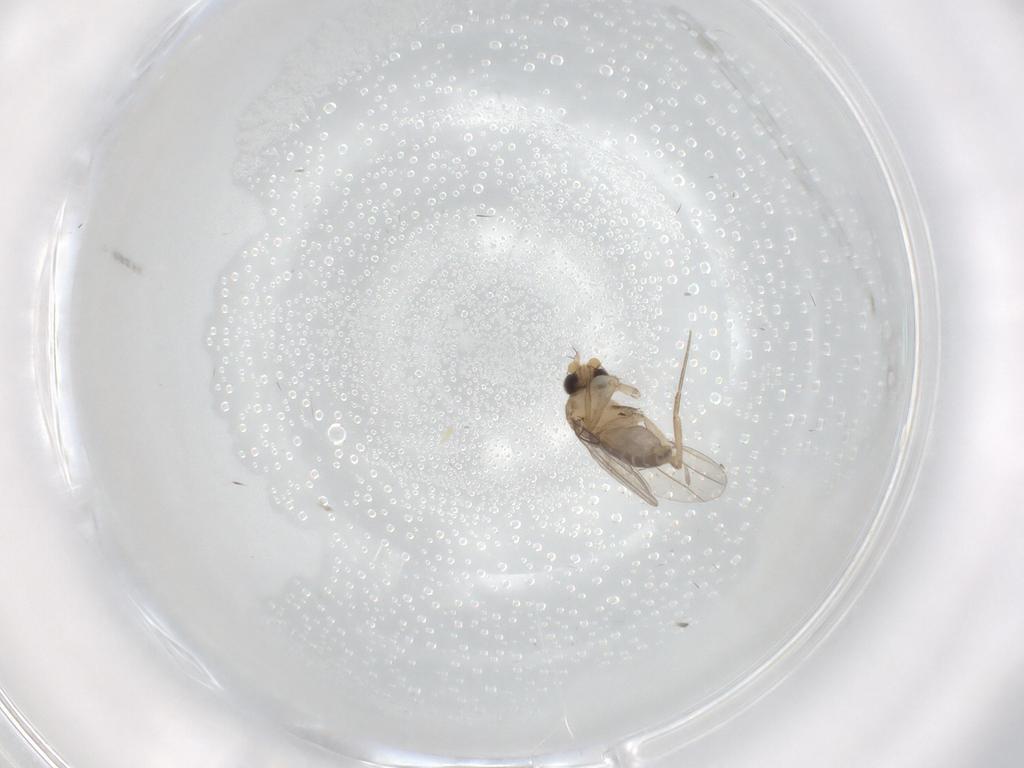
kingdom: Animalia
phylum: Arthropoda
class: Insecta
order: Diptera
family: Phoridae
